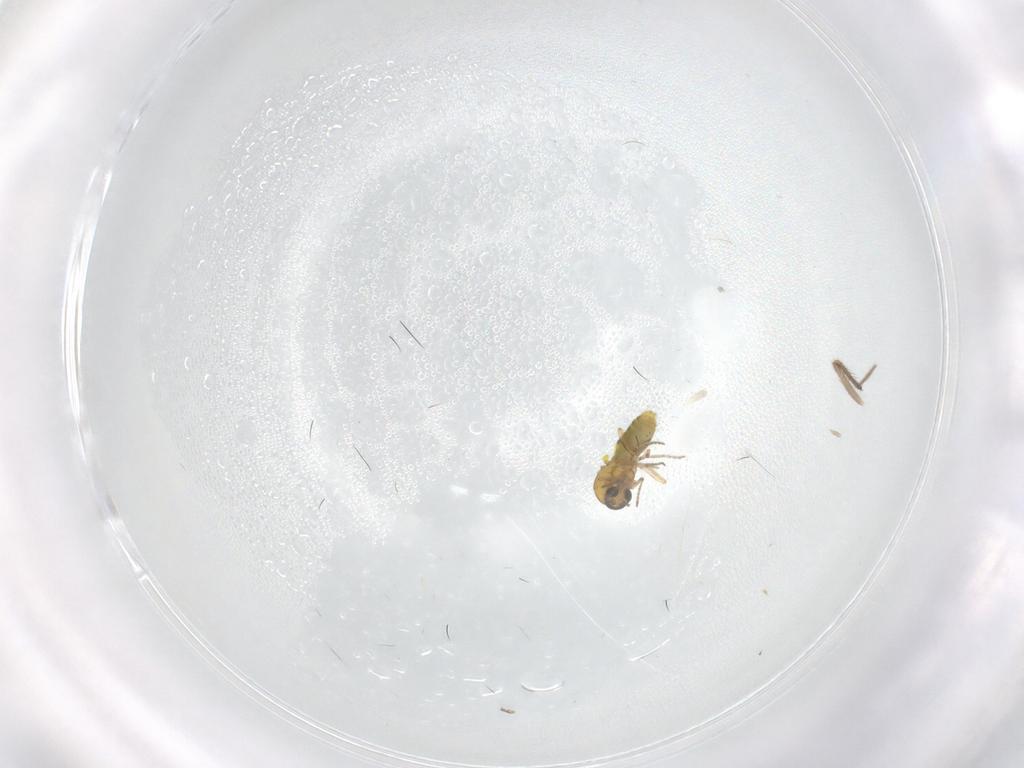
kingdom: Animalia
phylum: Arthropoda
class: Insecta
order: Diptera
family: Chironomidae
